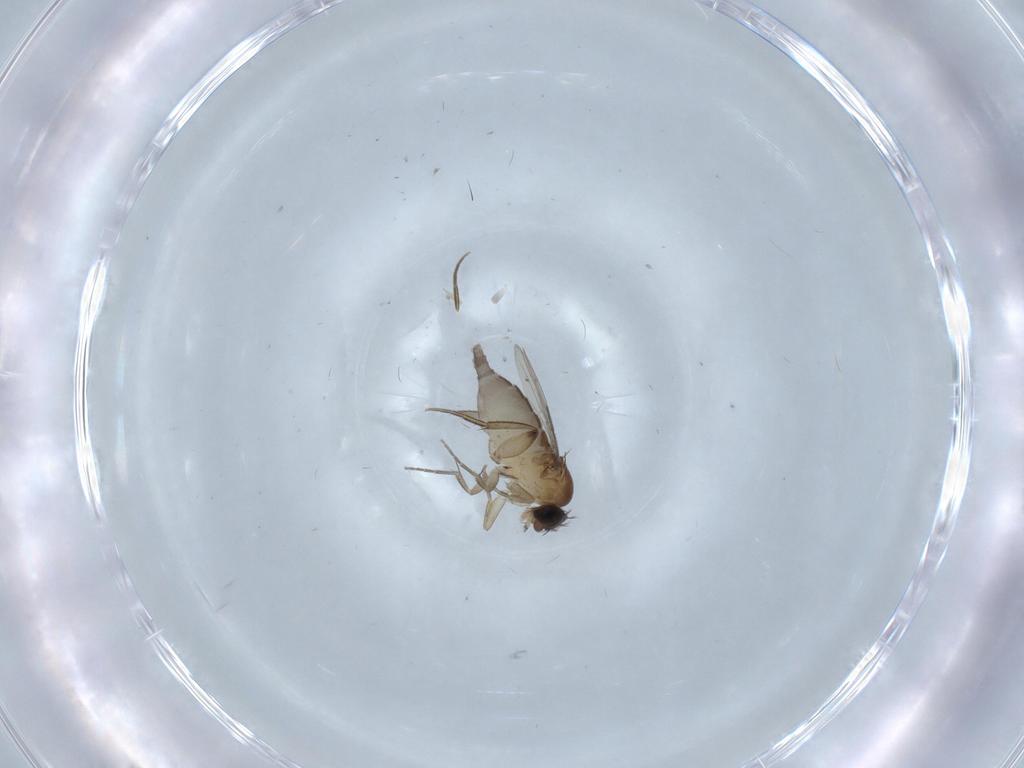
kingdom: Animalia
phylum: Arthropoda
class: Insecta
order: Diptera
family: Phoridae
